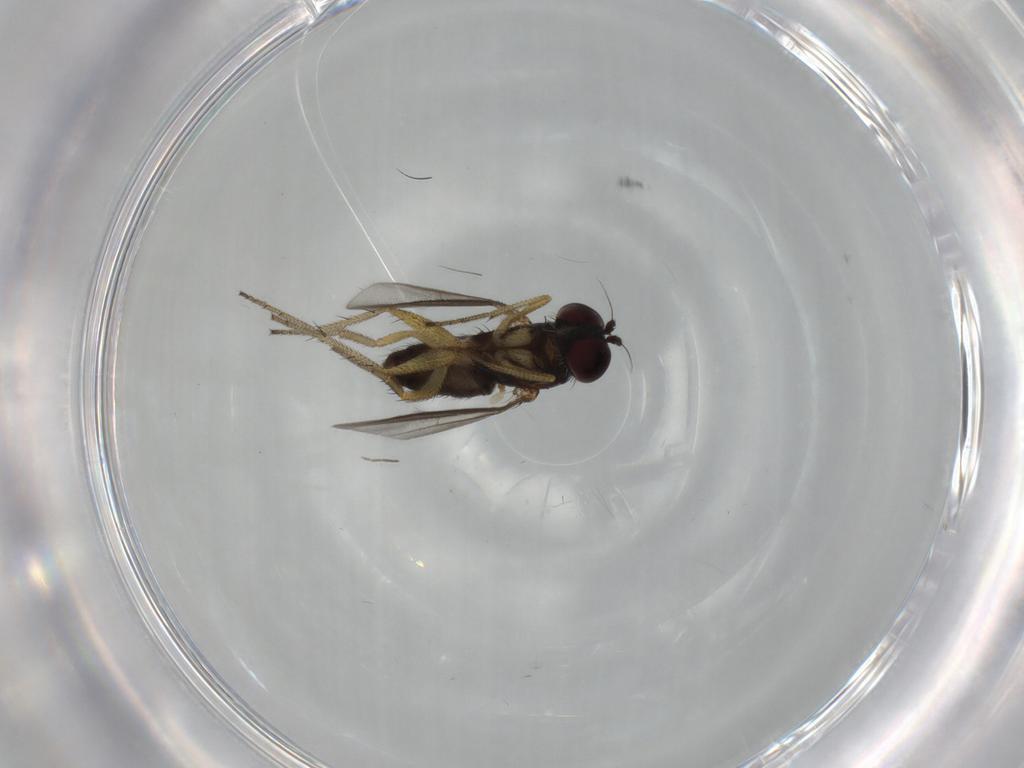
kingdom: Animalia
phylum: Arthropoda
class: Insecta
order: Diptera
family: Dolichopodidae
